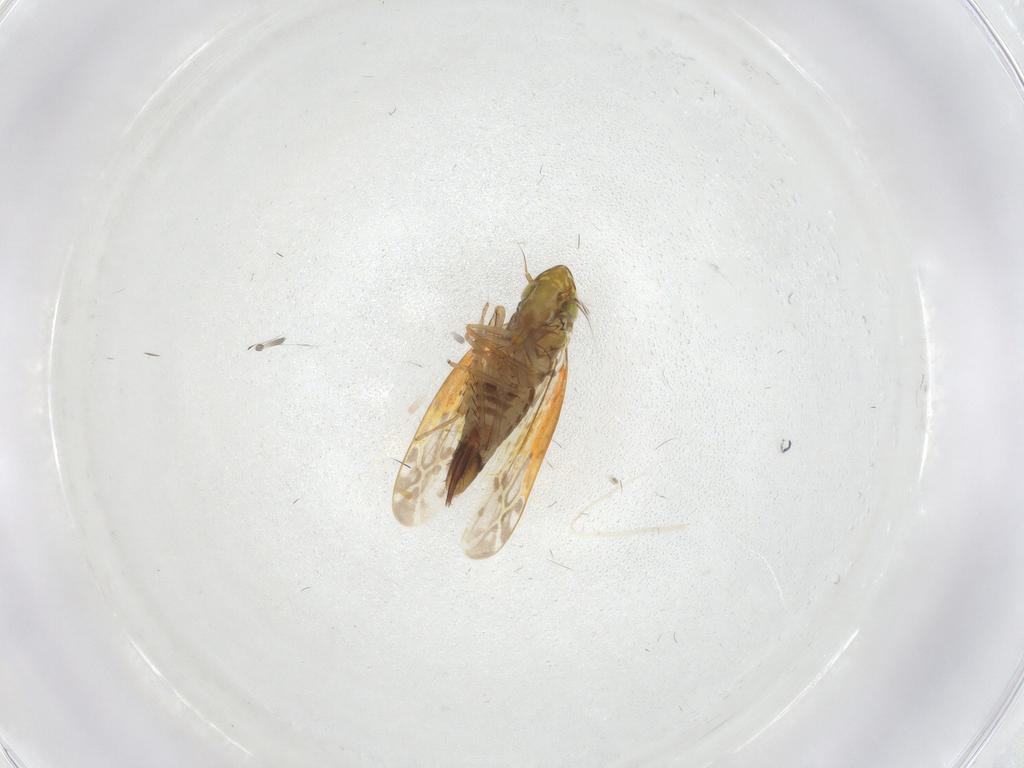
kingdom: Animalia
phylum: Arthropoda
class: Insecta
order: Hemiptera
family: Cicadellidae
